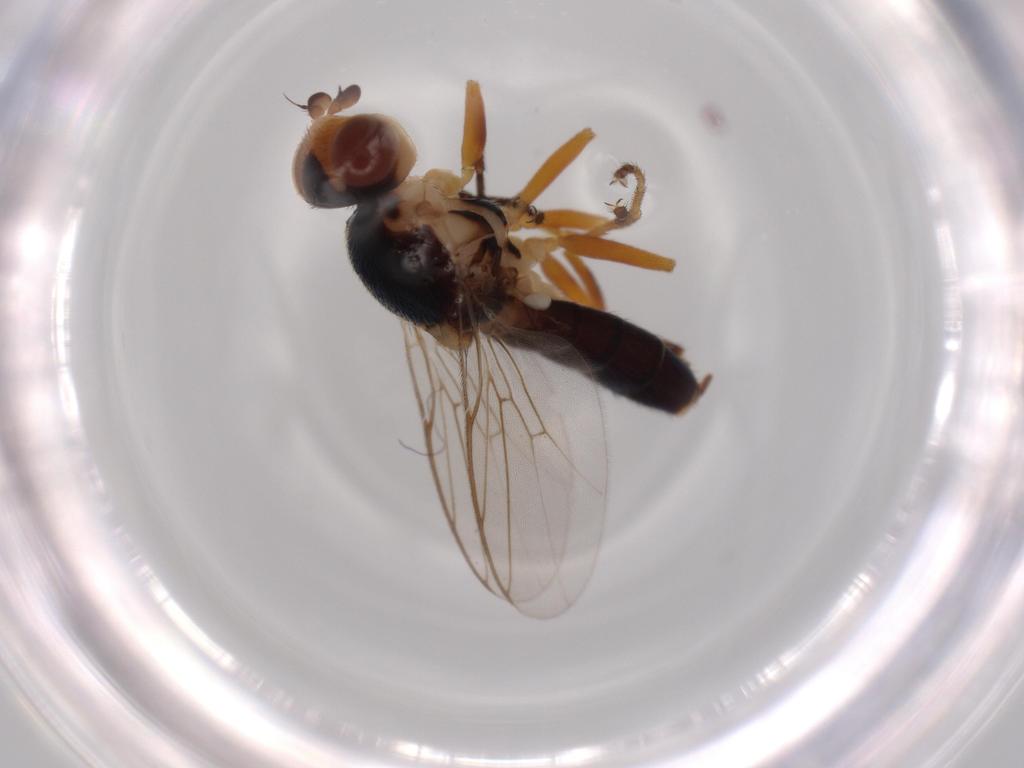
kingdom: Animalia
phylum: Arthropoda
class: Insecta
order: Diptera
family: Chloropidae
